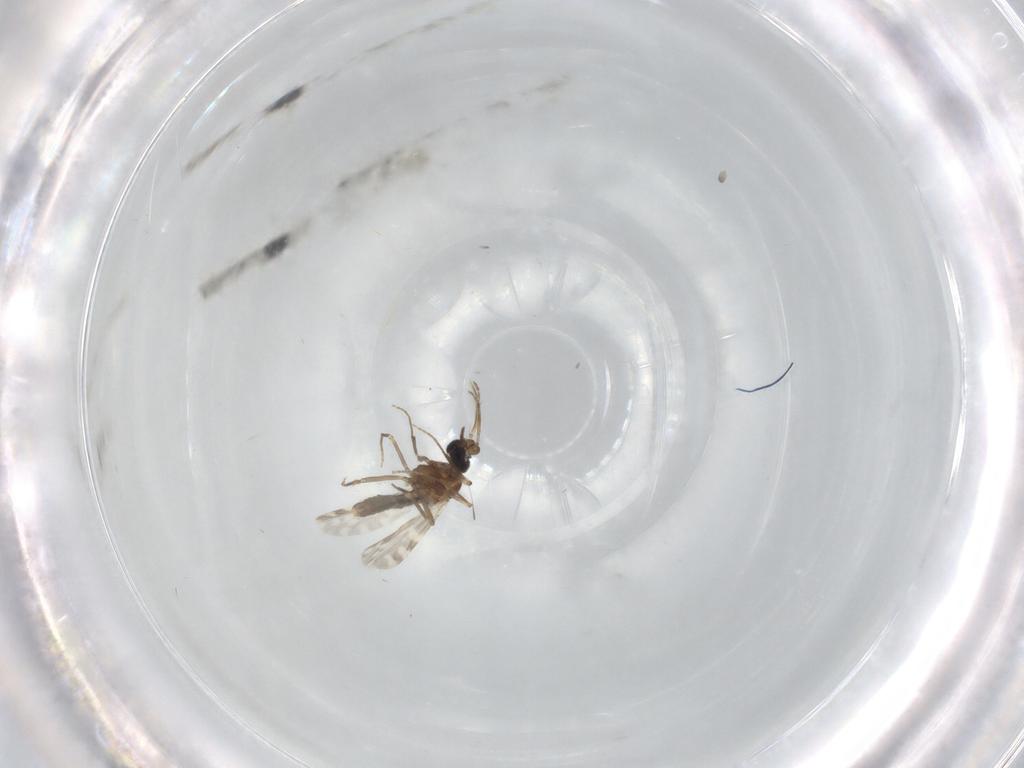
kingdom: Animalia
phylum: Arthropoda
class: Insecta
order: Diptera
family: Ceratopogonidae
